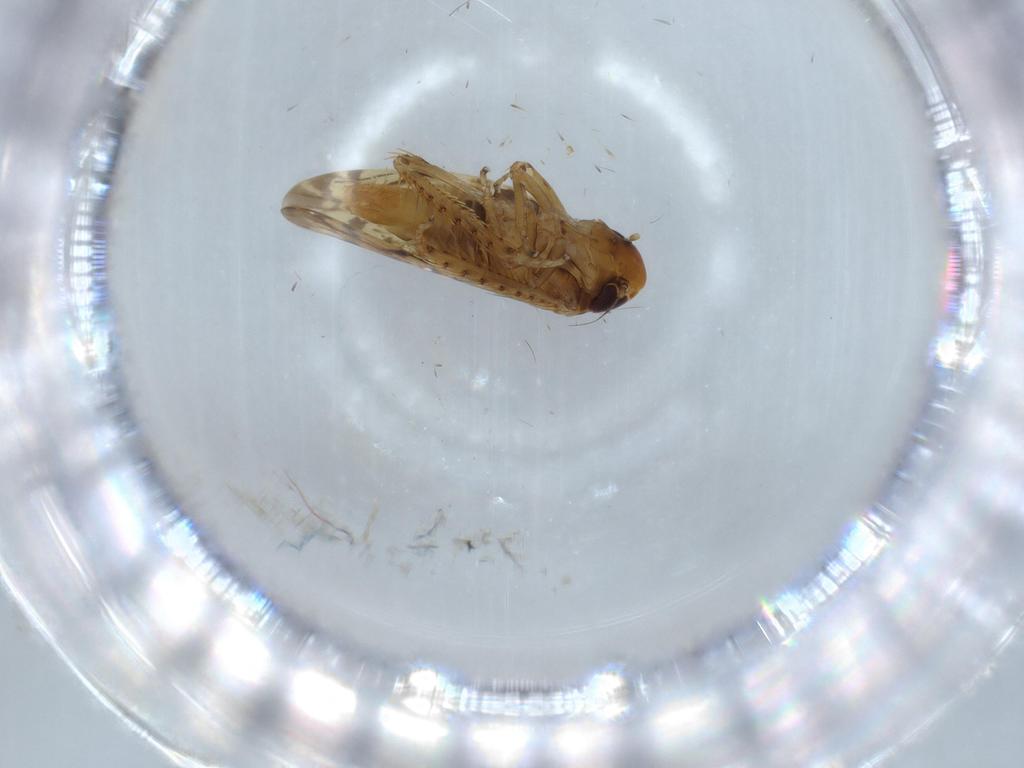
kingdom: Animalia
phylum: Arthropoda
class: Insecta
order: Hemiptera
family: Cicadellidae
